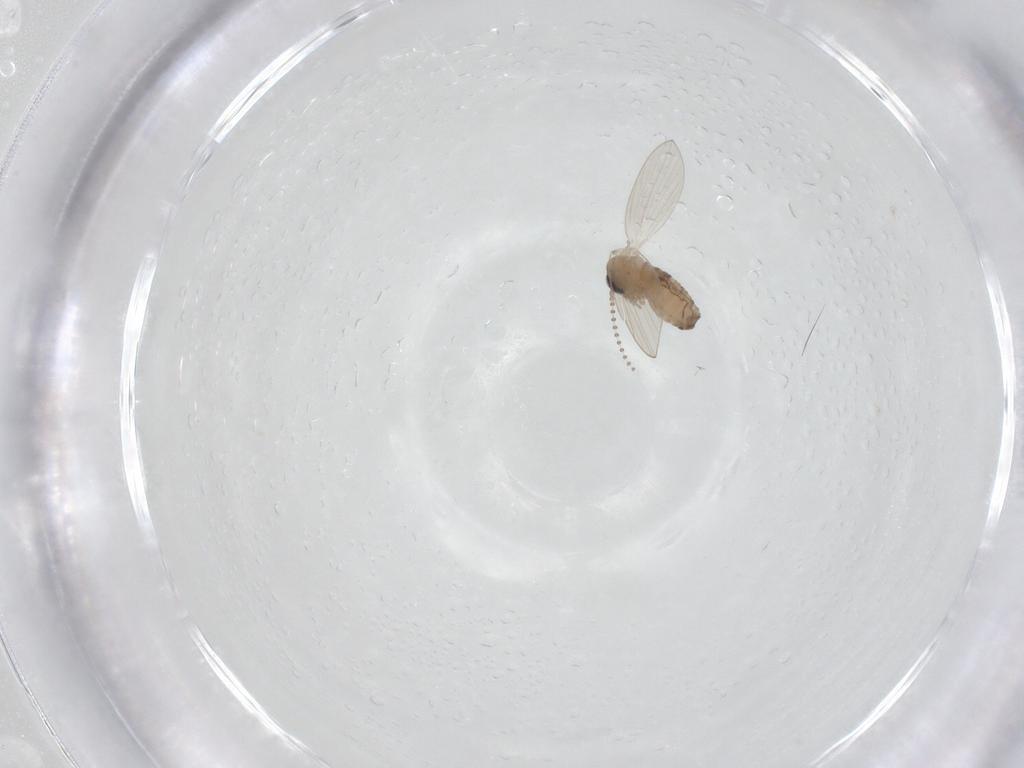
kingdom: Animalia
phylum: Arthropoda
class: Insecta
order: Diptera
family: Psychodidae
